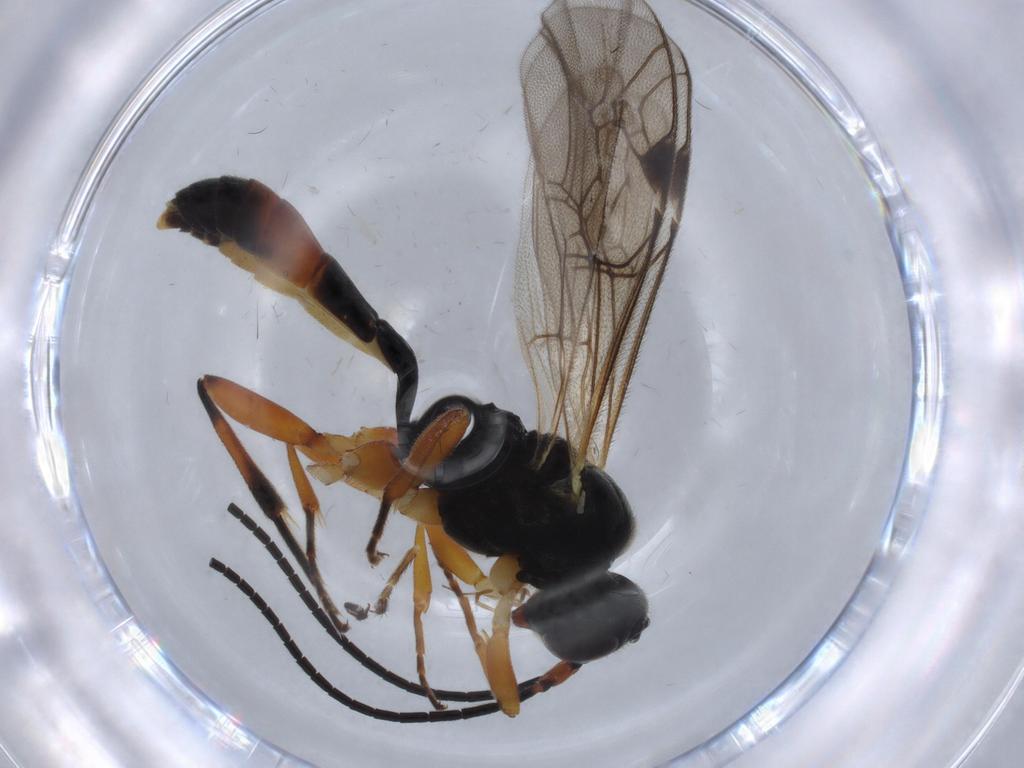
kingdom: Animalia
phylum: Arthropoda
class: Insecta
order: Hymenoptera
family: Ichneumonidae
